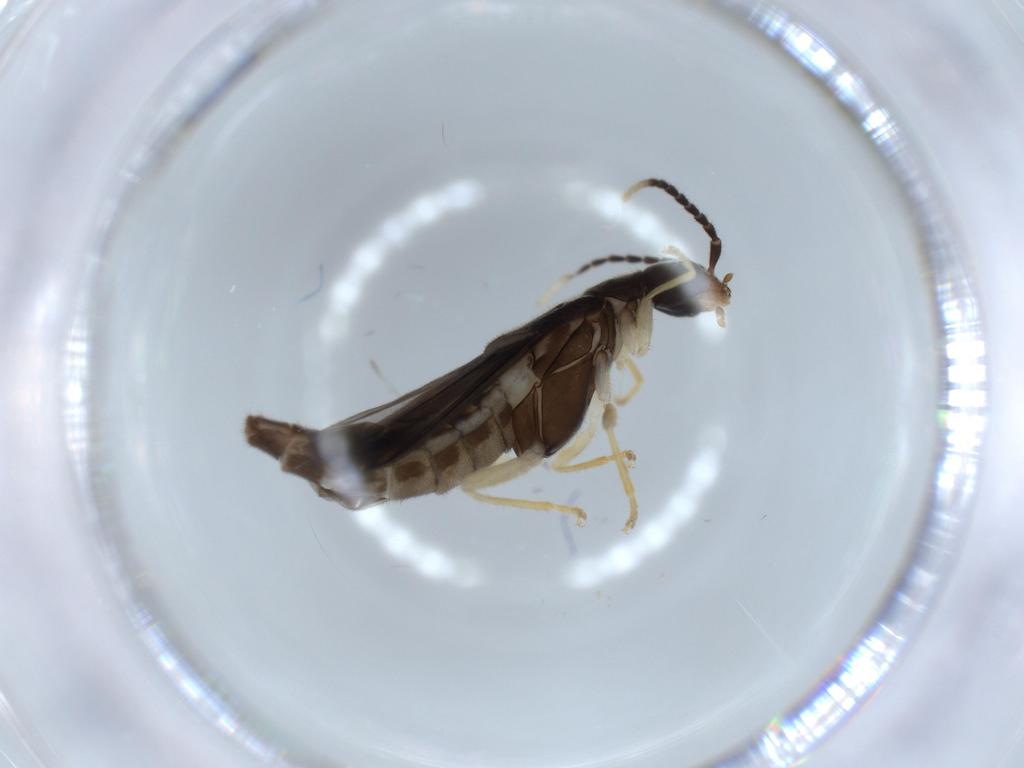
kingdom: Animalia
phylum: Arthropoda
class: Insecta
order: Coleoptera
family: Cantharidae
